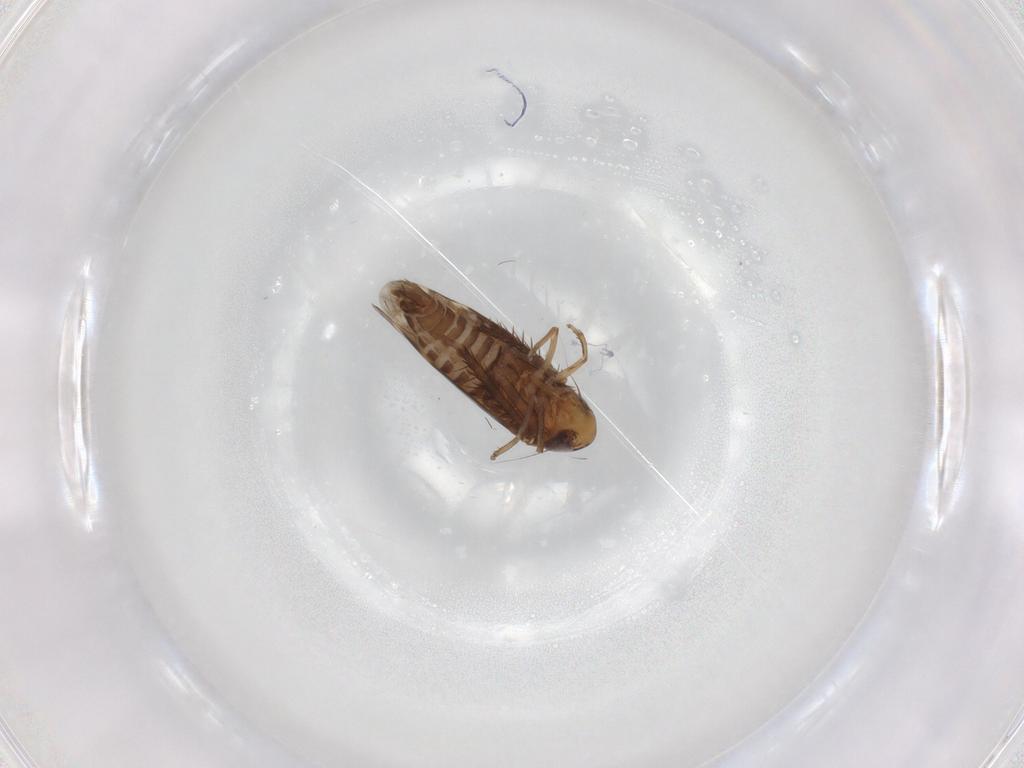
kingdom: Animalia
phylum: Arthropoda
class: Insecta
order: Hemiptera
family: Cicadellidae
